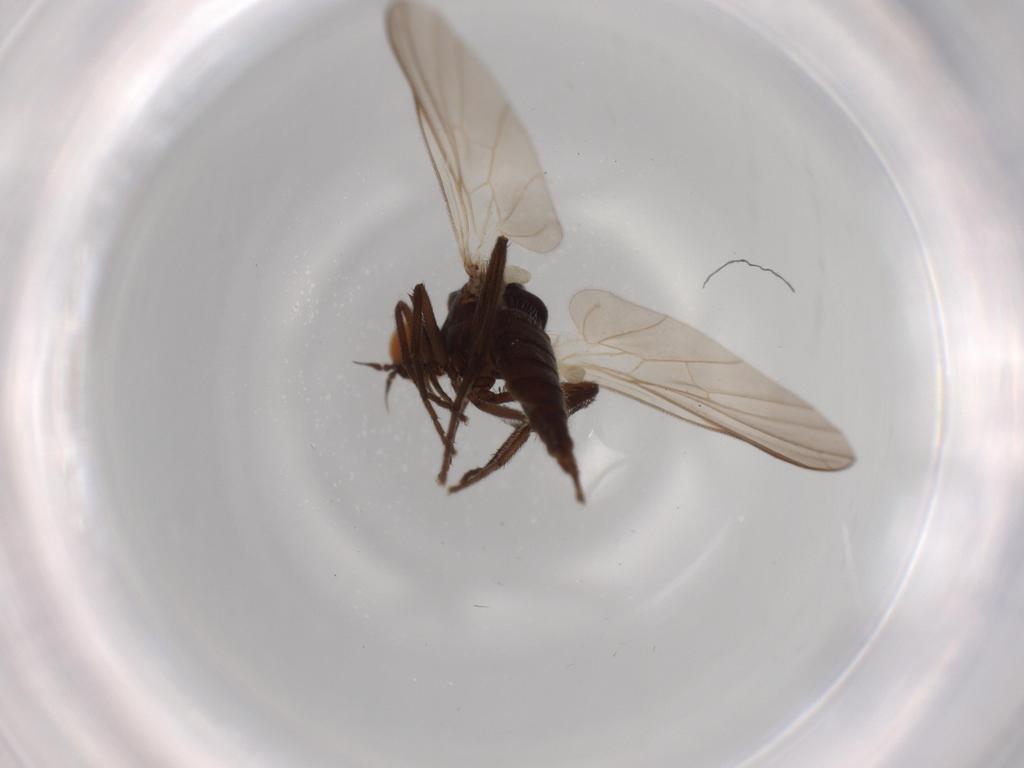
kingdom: Animalia
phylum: Arthropoda
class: Insecta
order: Diptera
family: Empididae
